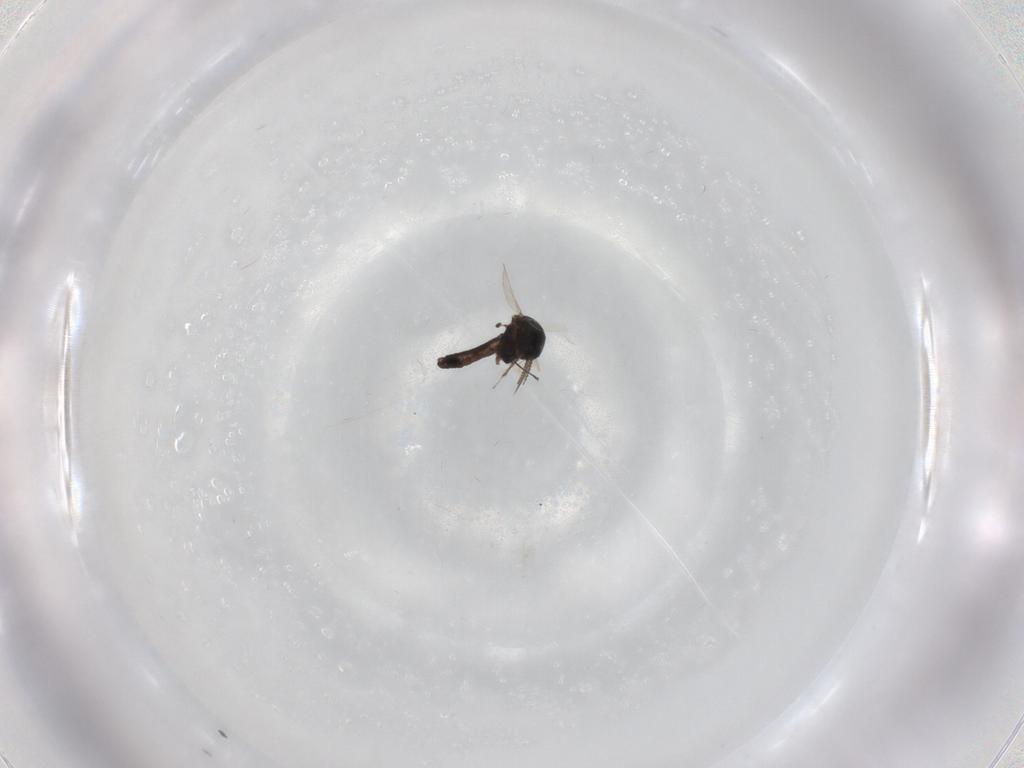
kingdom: Animalia
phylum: Arthropoda
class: Insecta
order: Diptera
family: Ceratopogonidae
